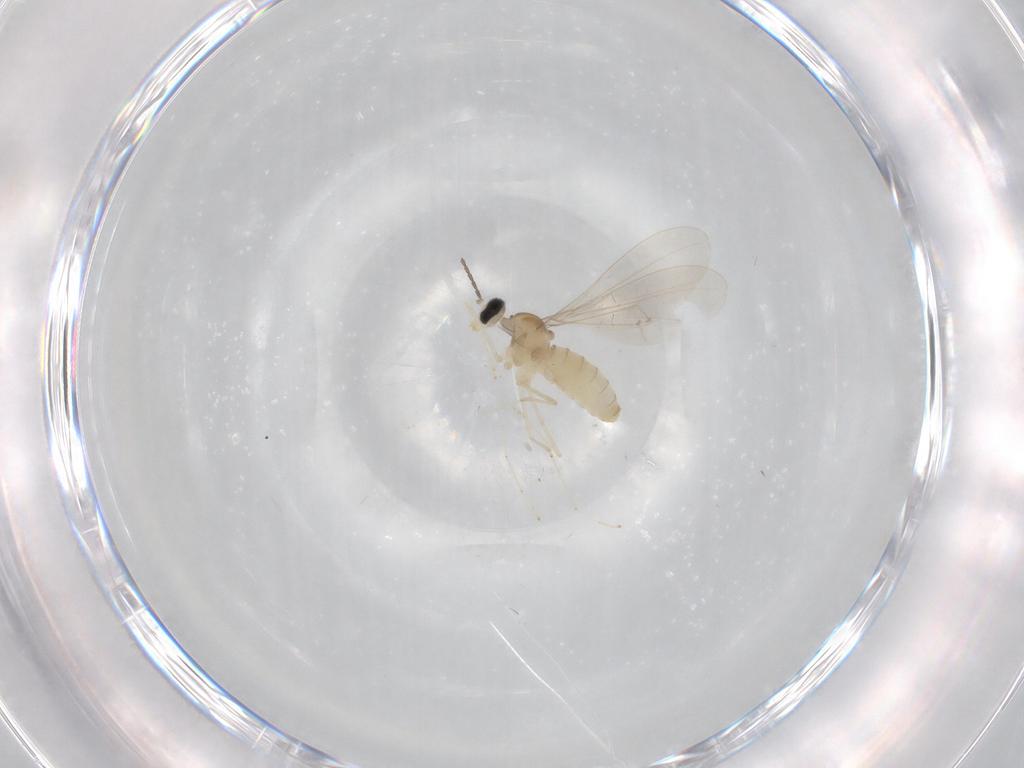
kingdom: Animalia
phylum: Arthropoda
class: Insecta
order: Diptera
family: Cecidomyiidae
